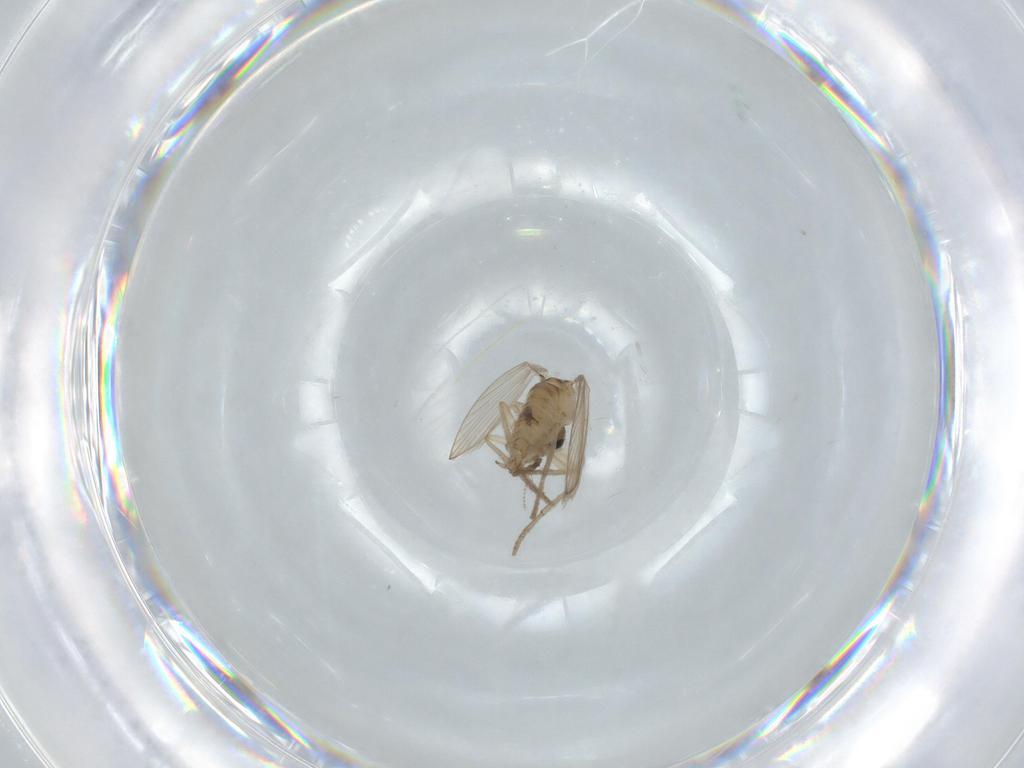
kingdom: Animalia
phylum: Arthropoda
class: Insecta
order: Diptera
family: Psychodidae
